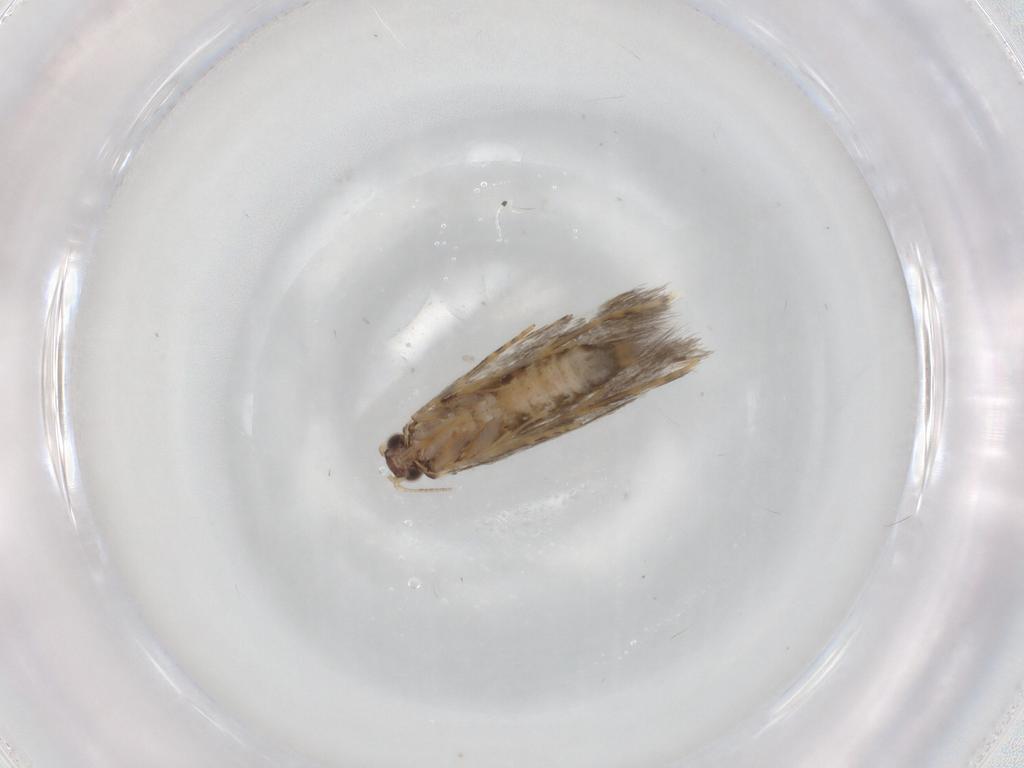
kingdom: Animalia
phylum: Arthropoda
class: Insecta
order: Lepidoptera
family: Tineidae
